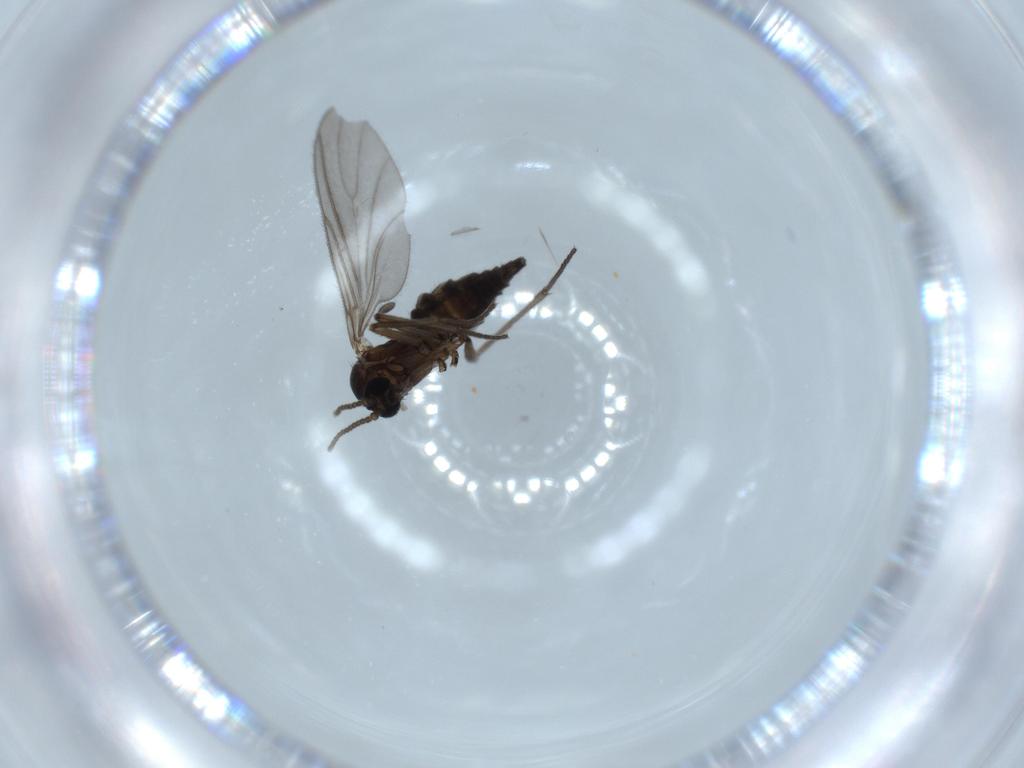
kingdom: Animalia
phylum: Arthropoda
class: Insecta
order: Diptera
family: Sciaridae
